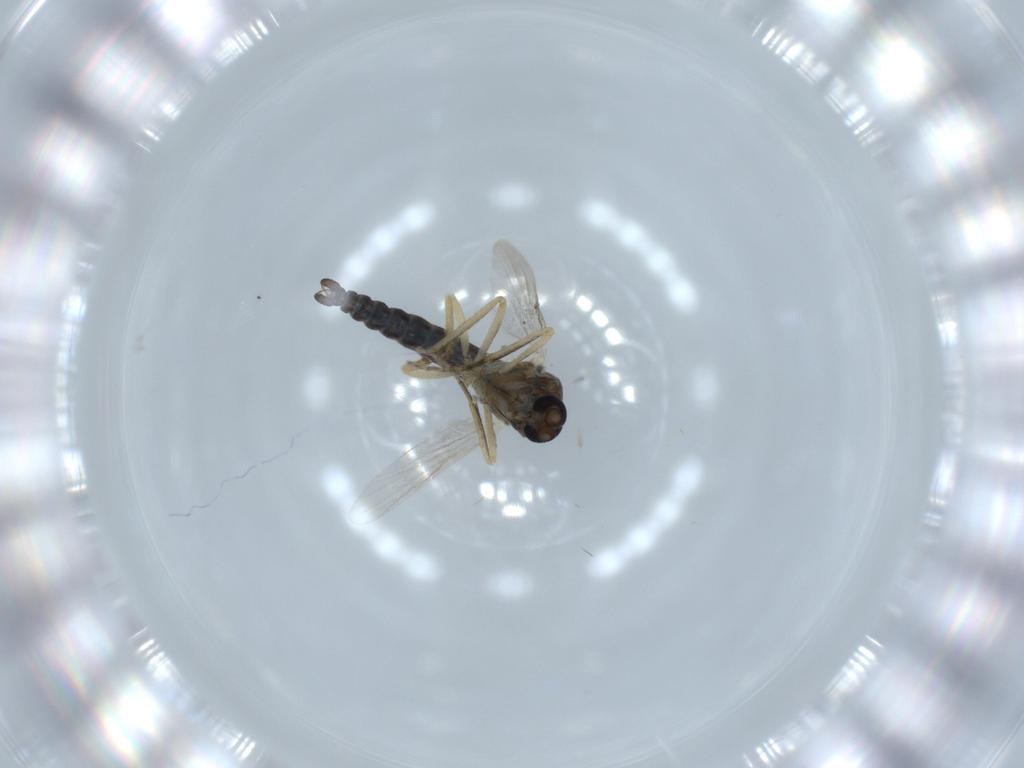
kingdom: Animalia
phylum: Arthropoda
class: Insecta
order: Diptera
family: Ceratopogonidae
